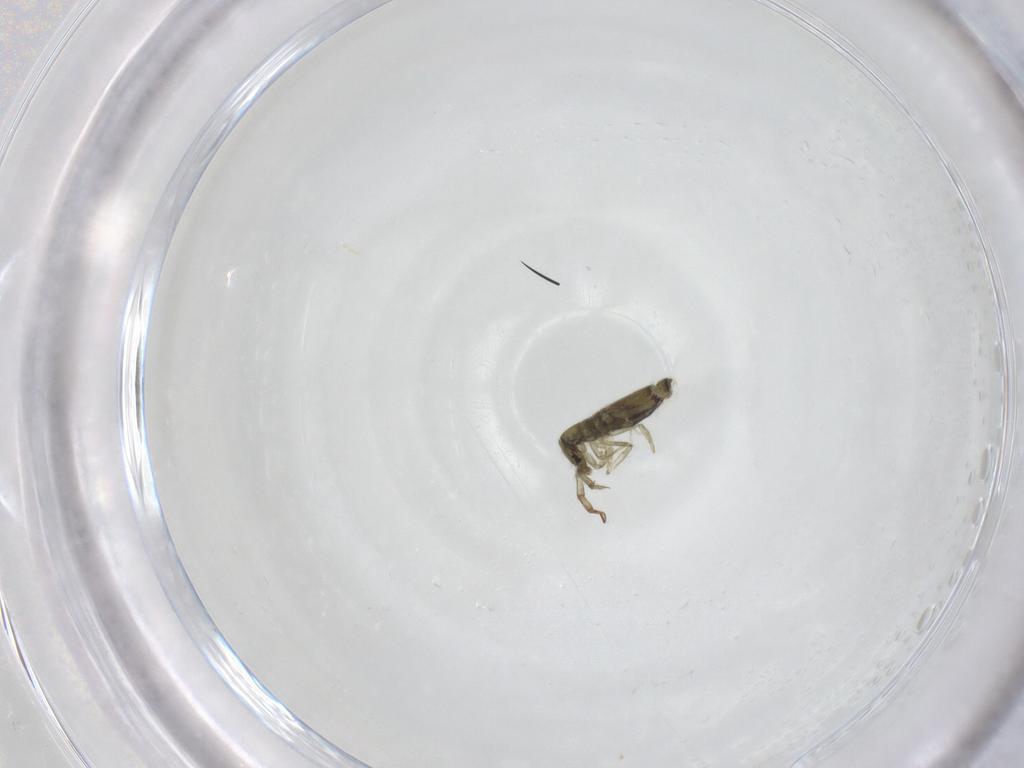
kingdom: Animalia
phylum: Arthropoda
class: Collembola
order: Entomobryomorpha
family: Entomobryidae
